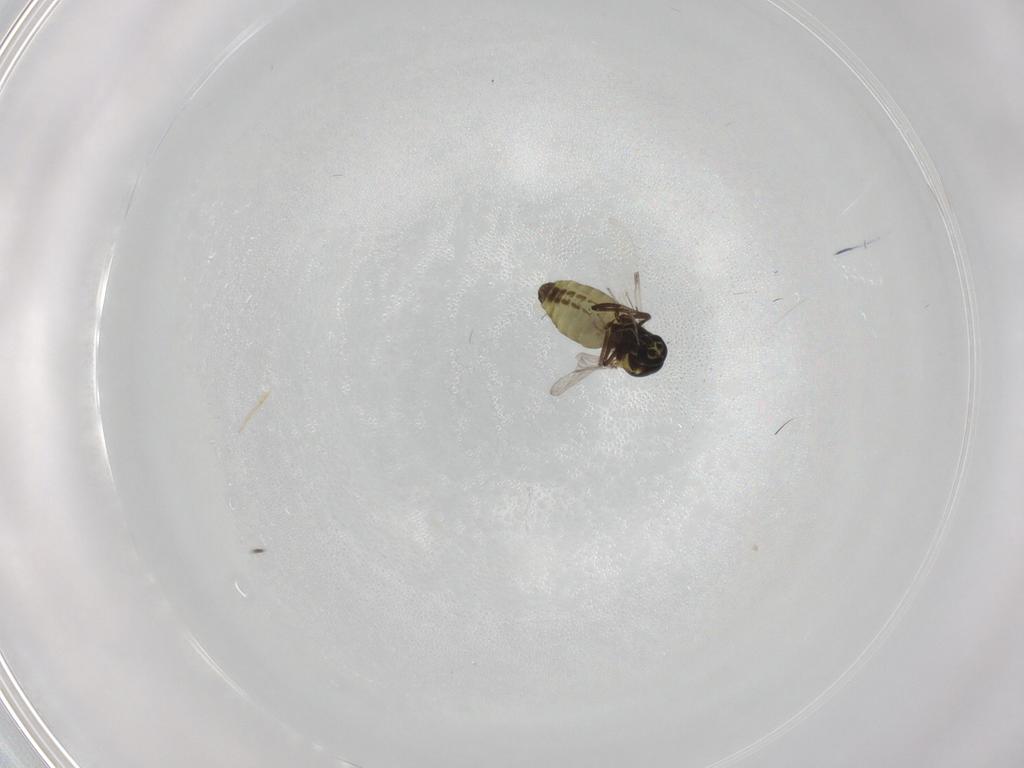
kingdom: Animalia
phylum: Arthropoda
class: Insecta
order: Diptera
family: Ceratopogonidae
